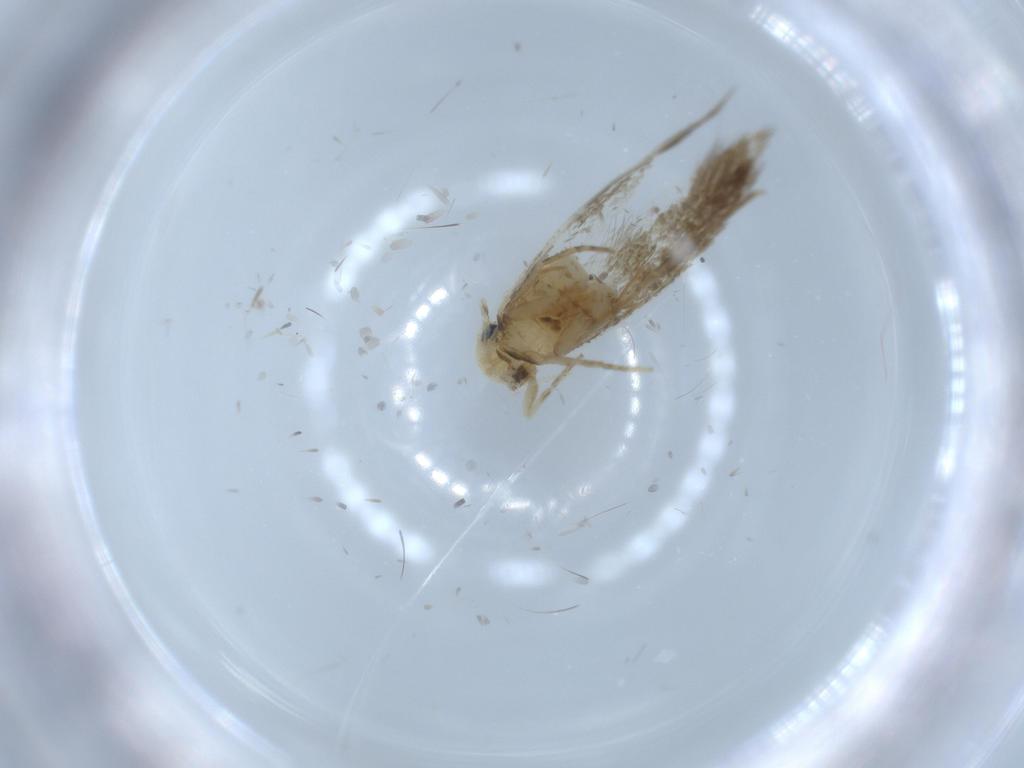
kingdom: Animalia
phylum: Arthropoda
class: Insecta
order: Lepidoptera
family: Tineidae
